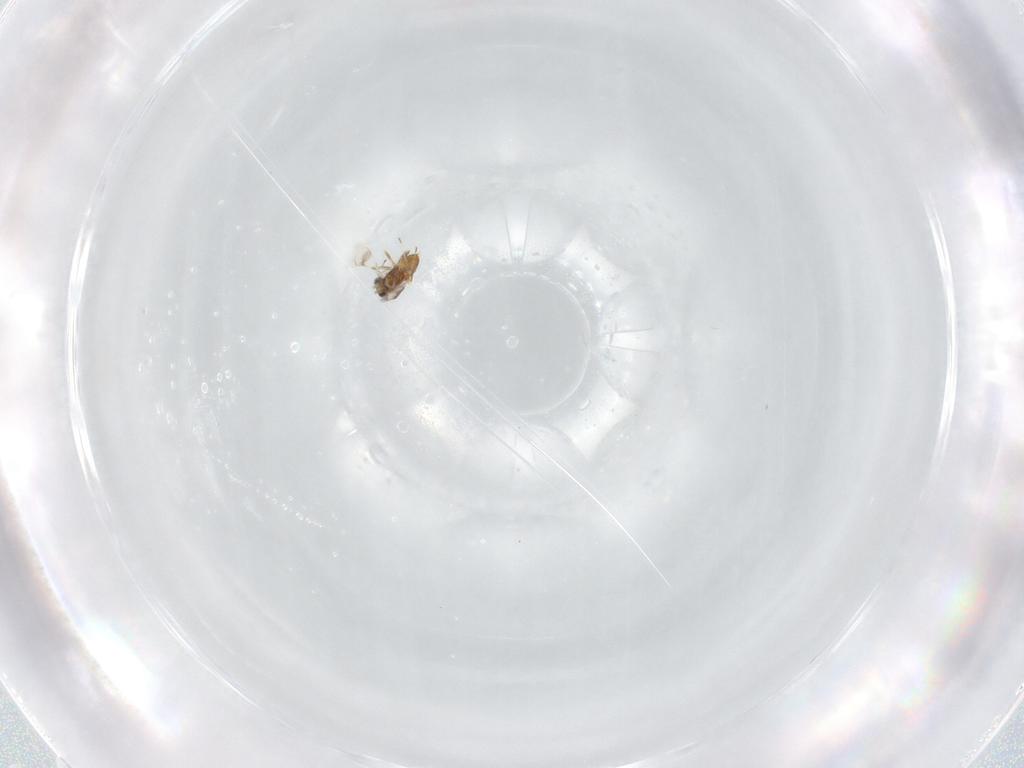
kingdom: Animalia
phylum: Arthropoda
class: Insecta
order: Hymenoptera
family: Trichogrammatidae
